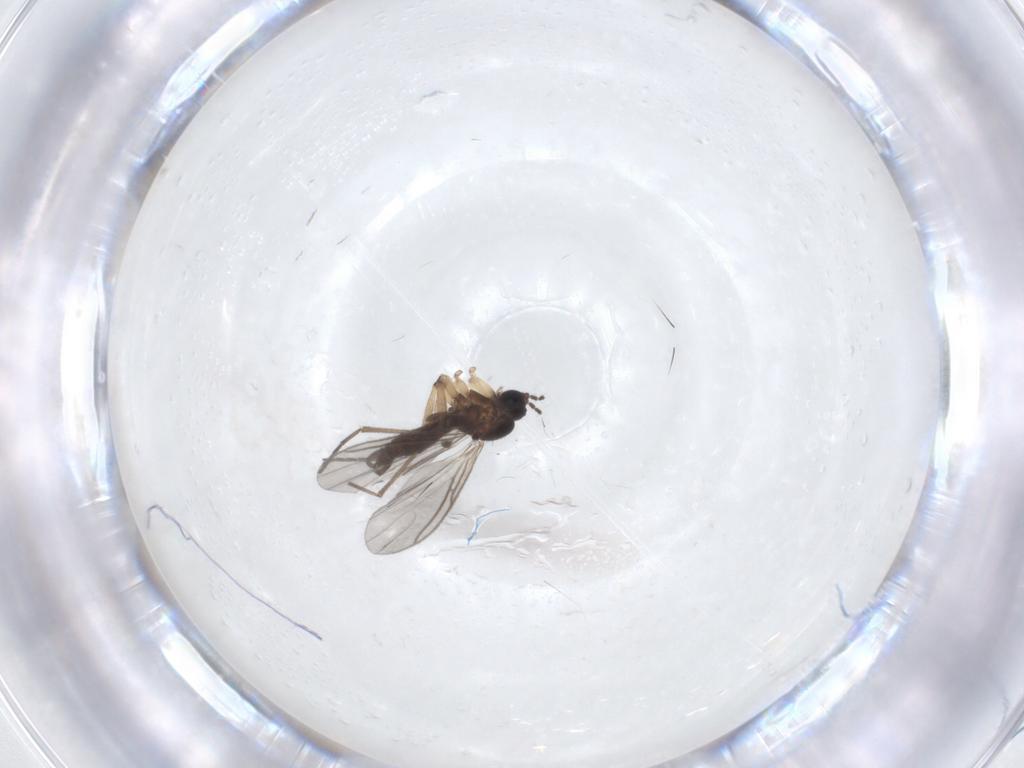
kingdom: Animalia
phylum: Arthropoda
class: Insecta
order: Diptera
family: Sciaridae
